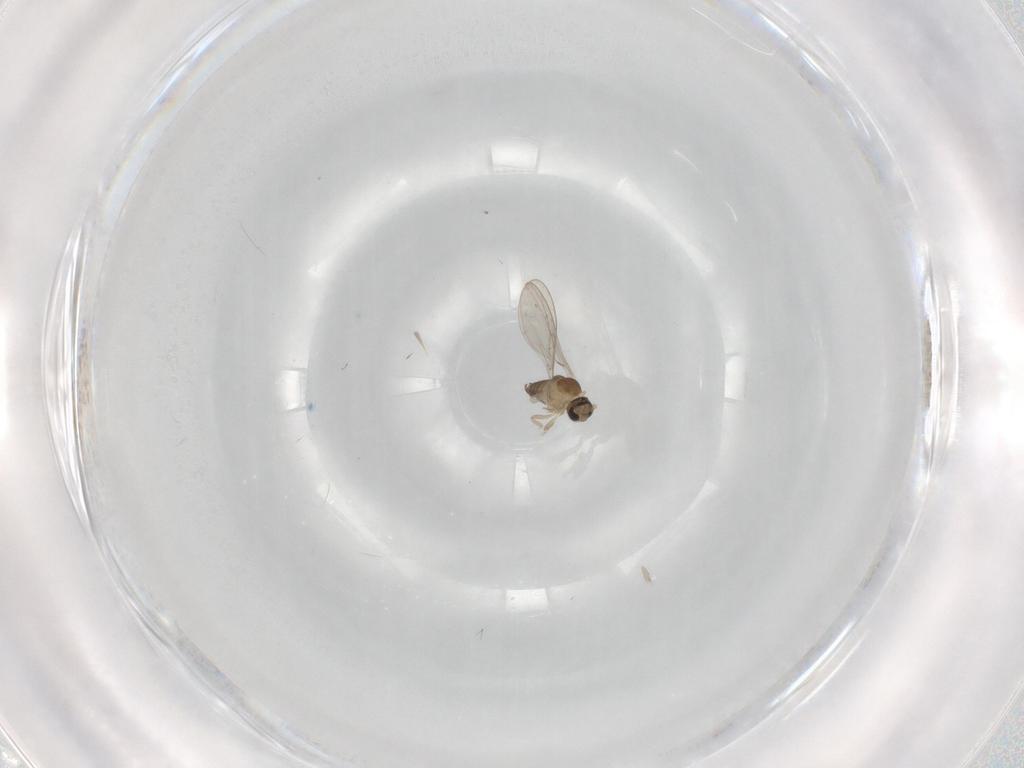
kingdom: Animalia
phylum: Arthropoda
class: Insecta
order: Diptera
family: Cecidomyiidae
